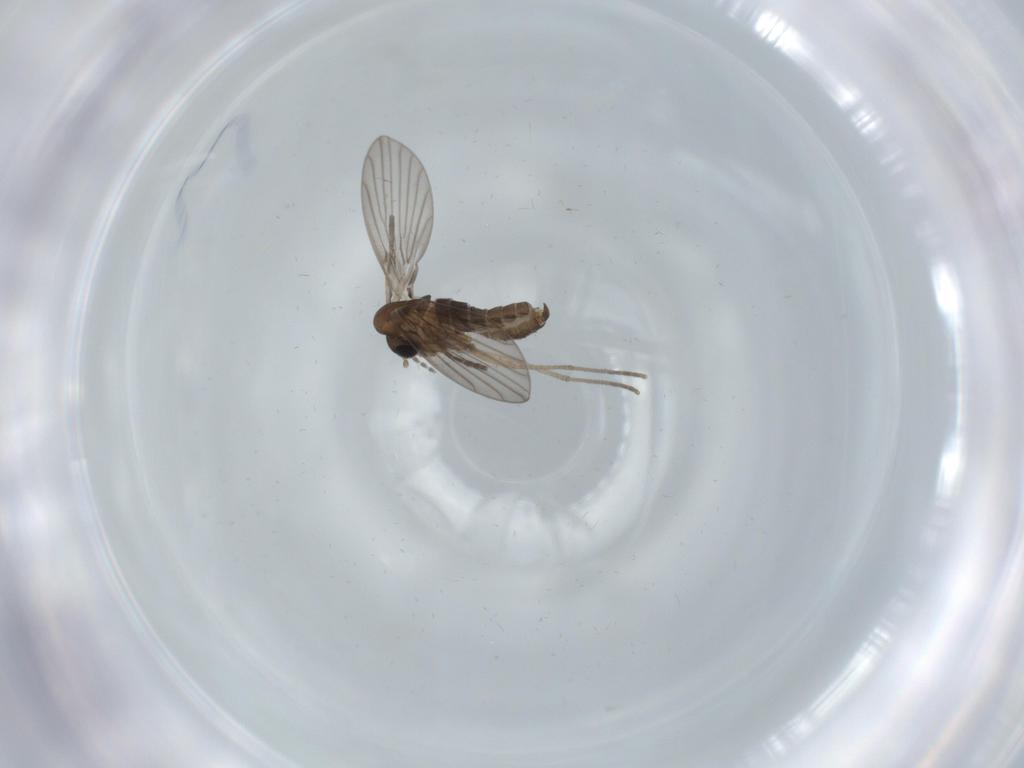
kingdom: Animalia
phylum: Arthropoda
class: Insecta
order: Diptera
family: Psychodidae
